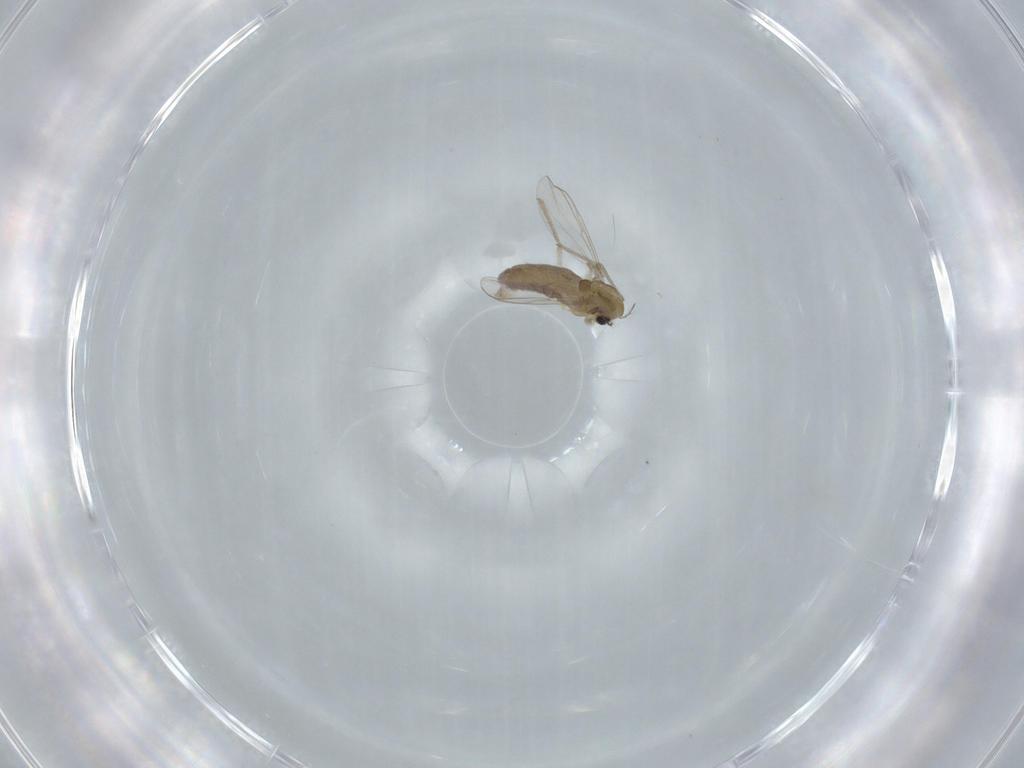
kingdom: Animalia
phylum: Arthropoda
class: Insecta
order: Diptera
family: Chironomidae
